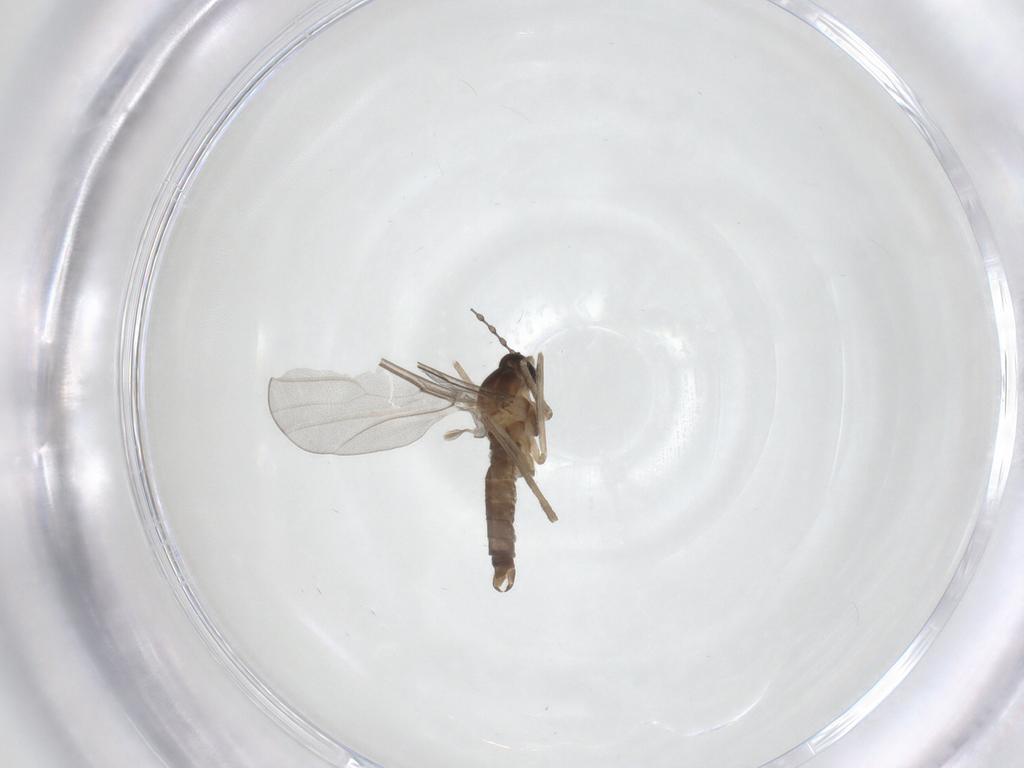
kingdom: Animalia
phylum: Arthropoda
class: Insecta
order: Diptera
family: Cecidomyiidae
